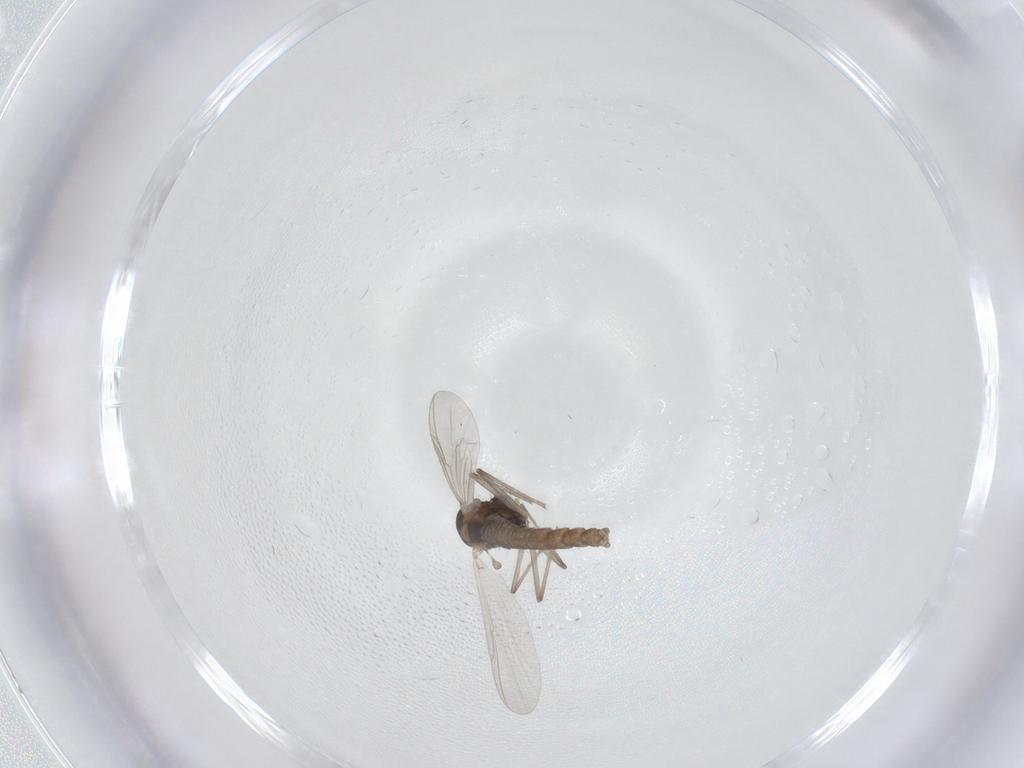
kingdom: Animalia
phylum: Arthropoda
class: Insecta
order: Diptera
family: Chironomidae
